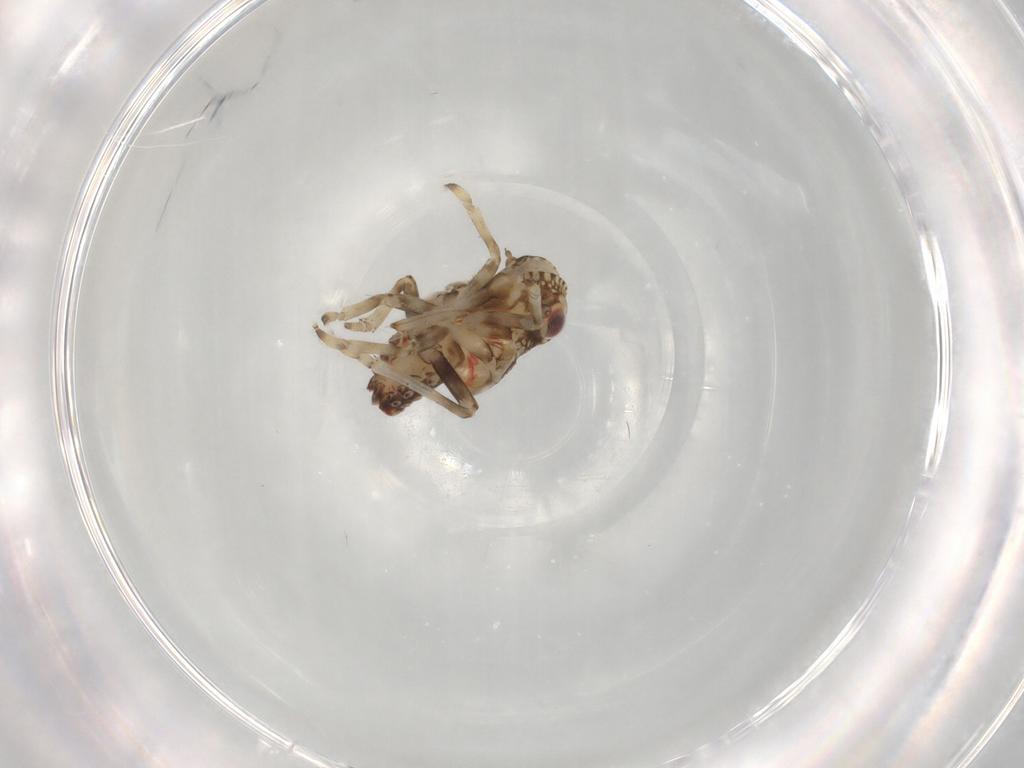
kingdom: Animalia
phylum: Arthropoda
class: Insecta
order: Hemiptera
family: Tropiduchidae
